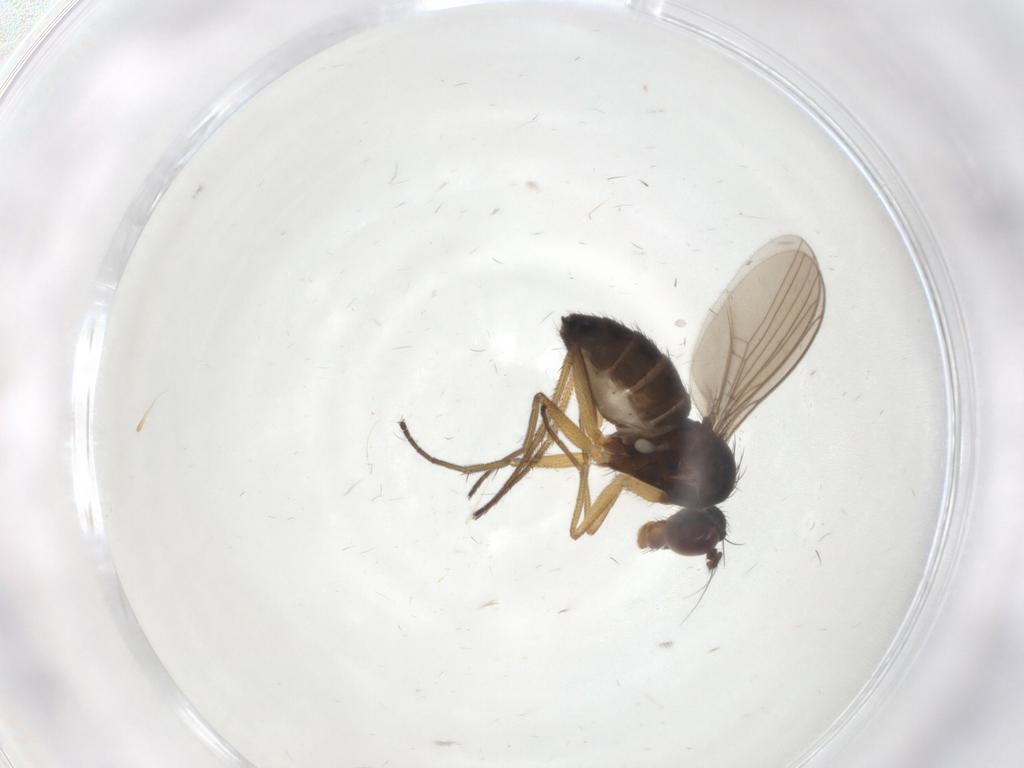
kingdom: Animalia
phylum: Arthropoda
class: Insecta
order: Diptera
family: Dolichopodidae
